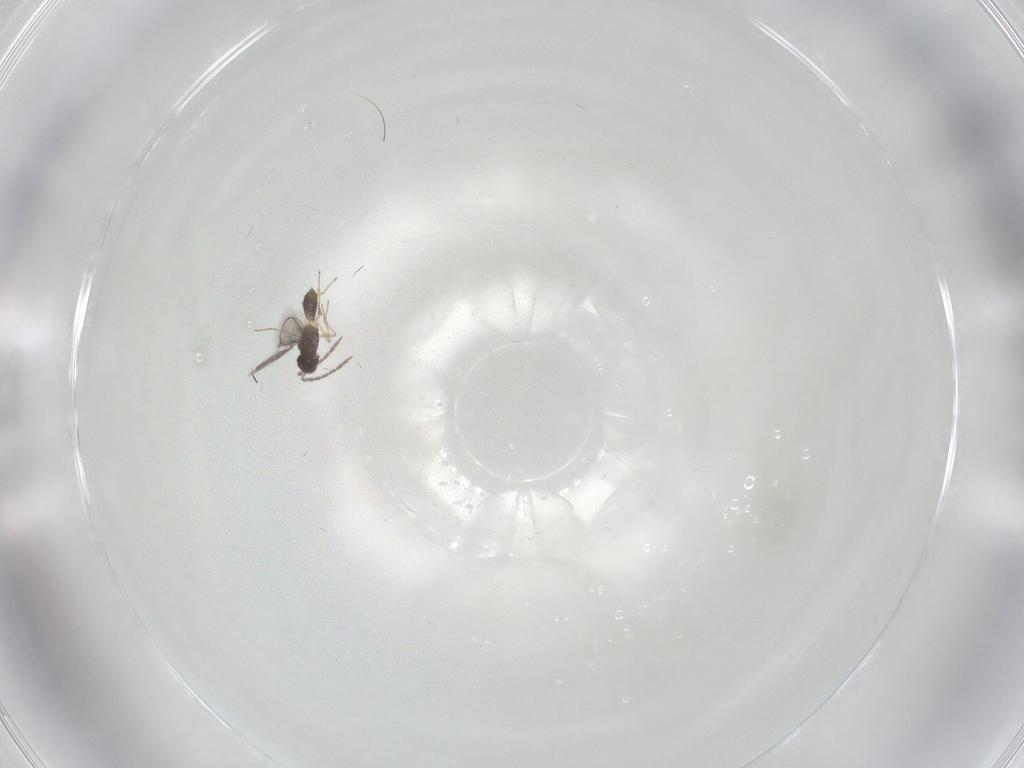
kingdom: Animalia
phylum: Arthropoda
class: Insecta
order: Hymenoptera
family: Eulophidae
